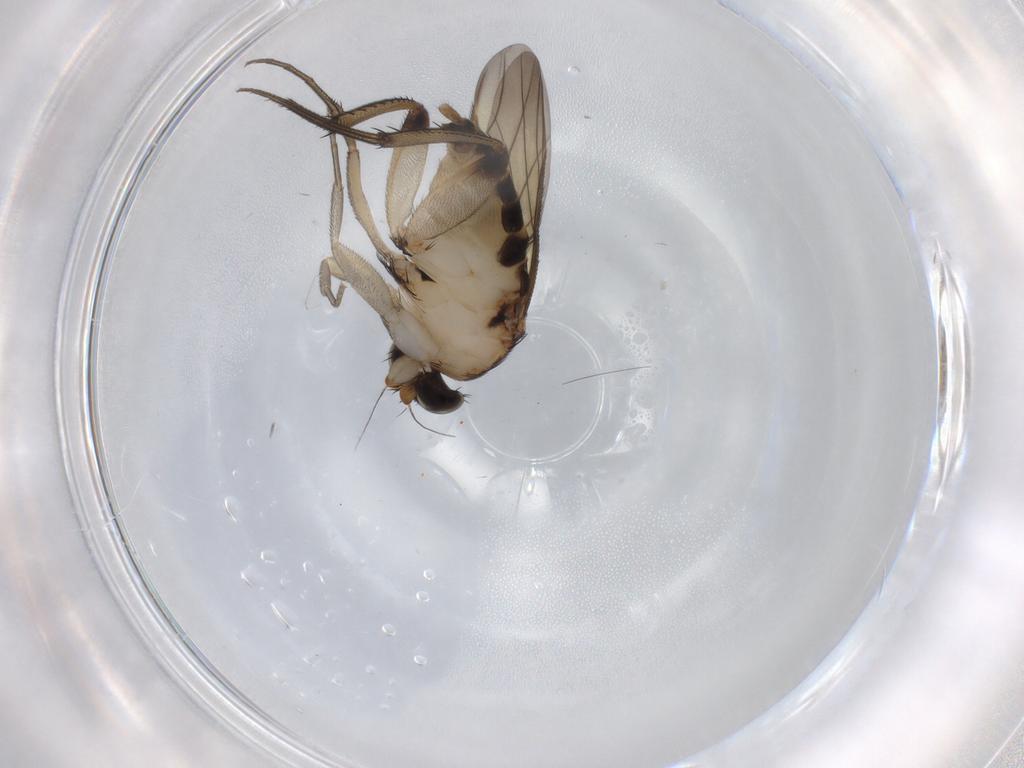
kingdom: Animalia
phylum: Arthropoda
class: Insecta
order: Diptera
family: Phoridae
